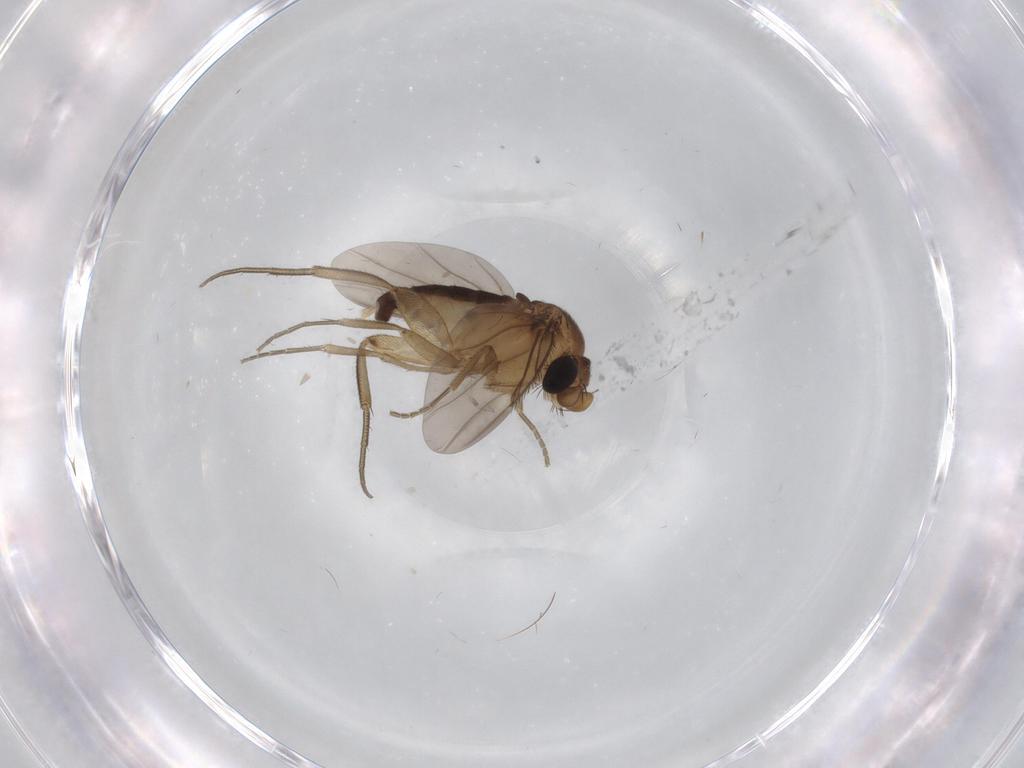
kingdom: Animalia
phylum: Arthropoda
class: Insecta
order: Diptera
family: Phoridae
